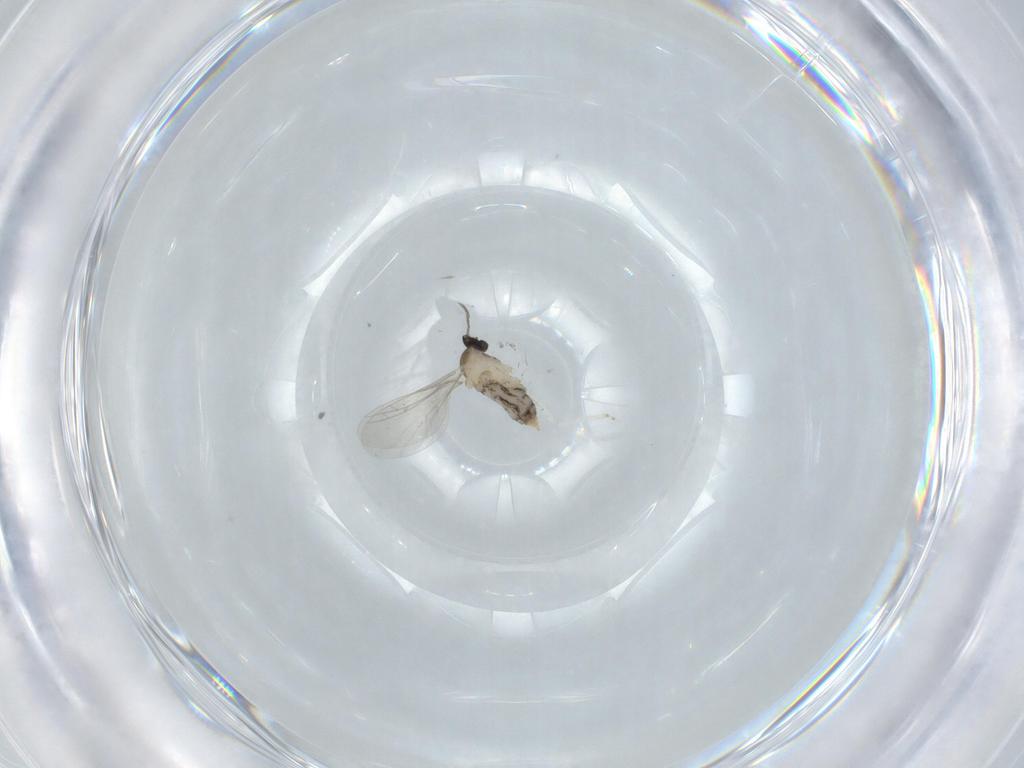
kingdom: Animalia
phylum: Arthropoda
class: Insecta
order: Diptera
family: Cecidomyiidae
